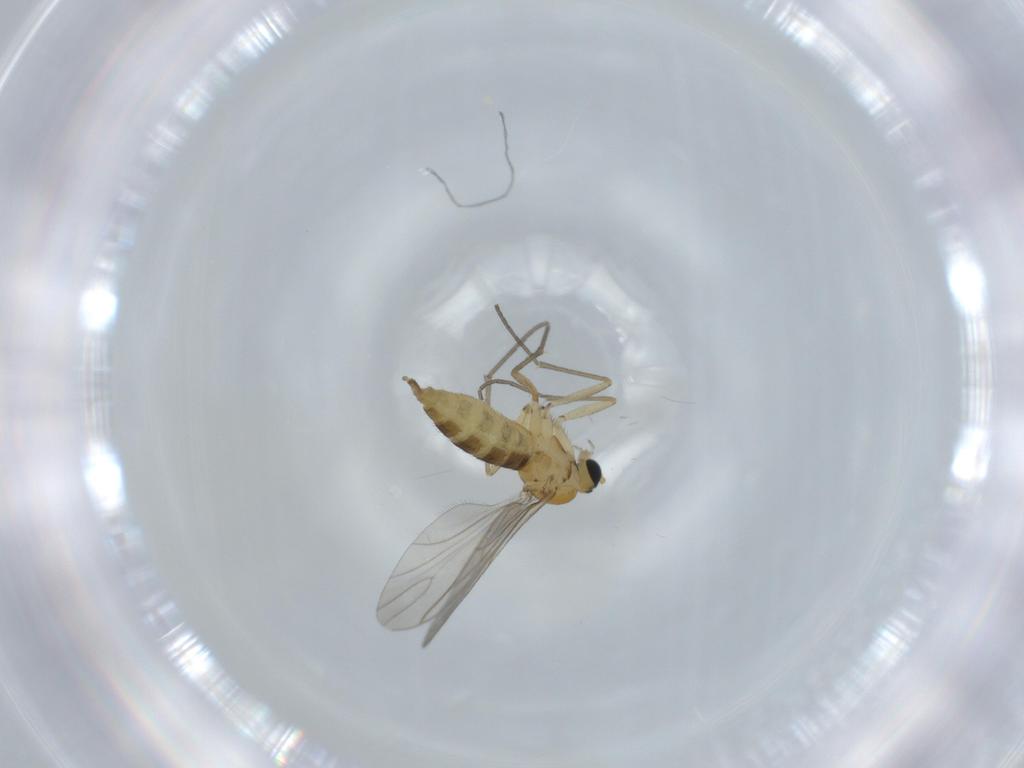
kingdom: Animalia
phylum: Arthropoda
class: Insecta
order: Diptera
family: Sciaridae
